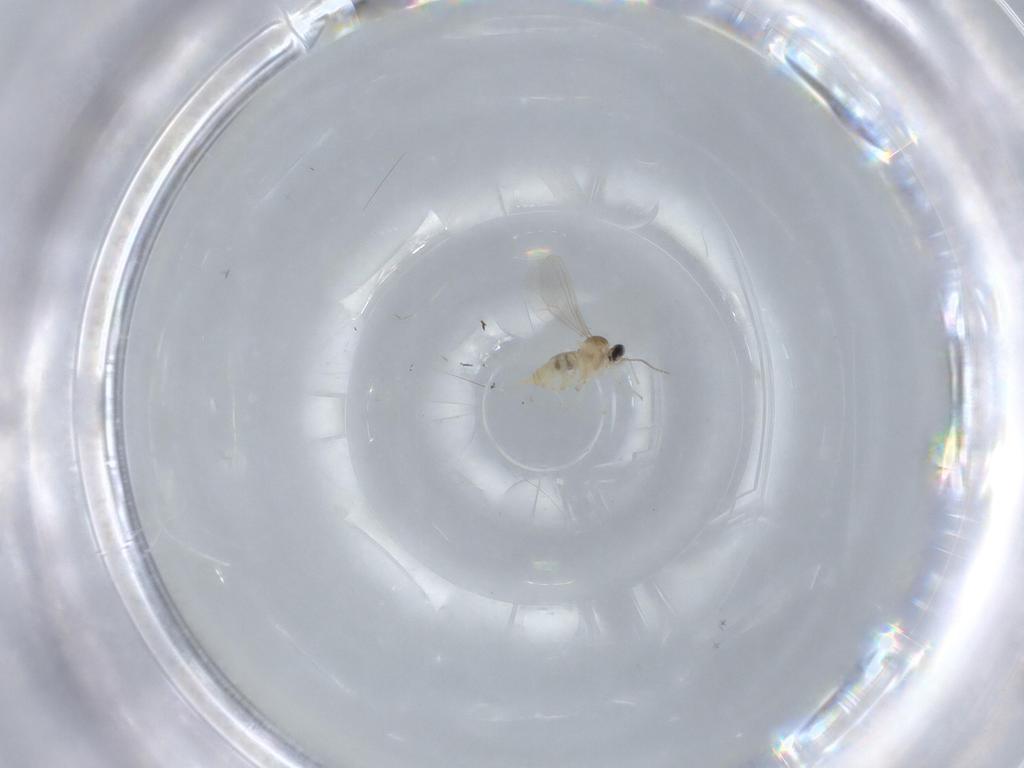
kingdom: Animalia
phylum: Arthropoda
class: Insecta
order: Diptera
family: Cecidomyiidae
